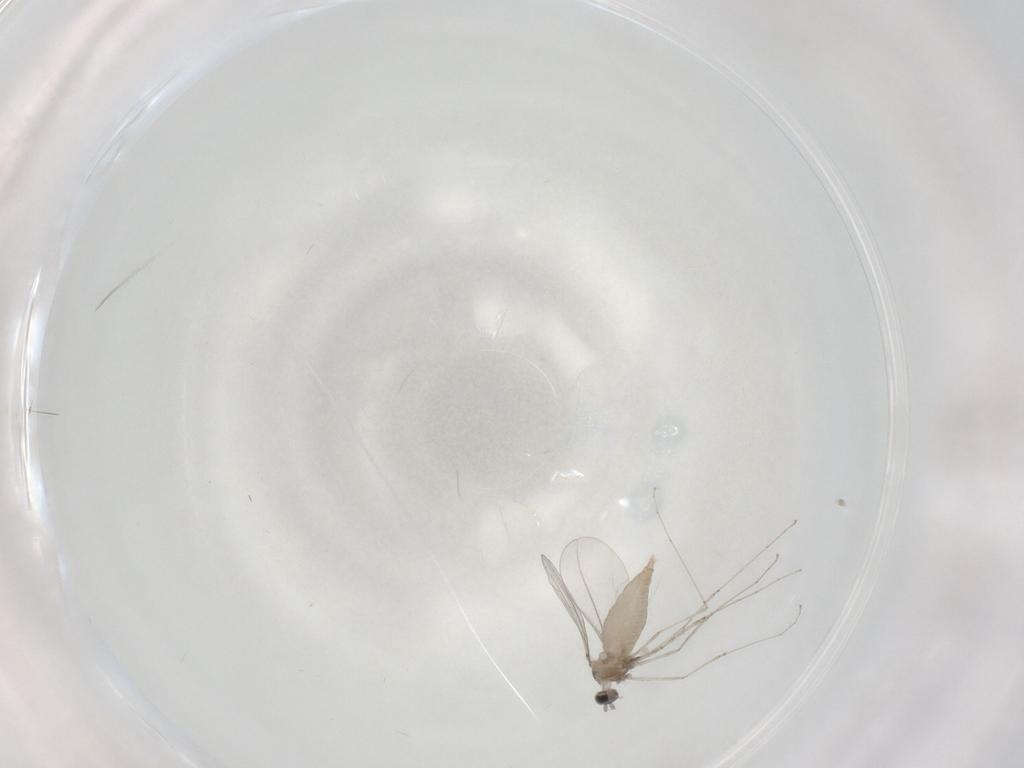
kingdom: Animalia
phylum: Arthropoda
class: Insecta
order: Diptera
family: Cecidomyiidae
